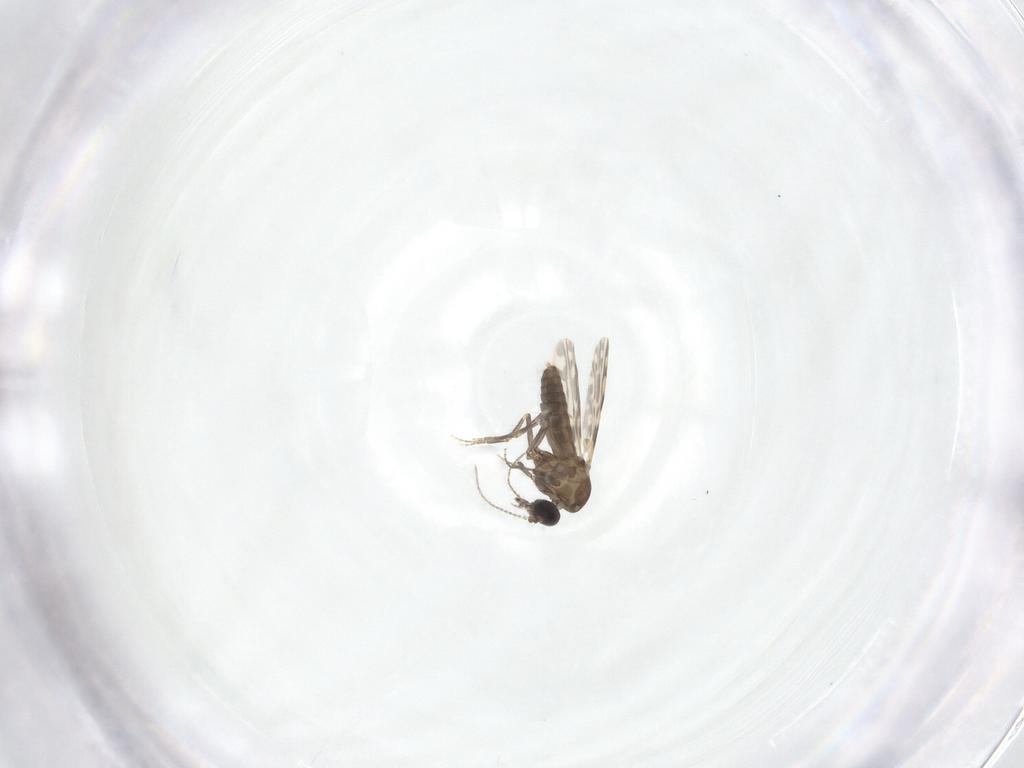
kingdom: Animalia
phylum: Arthropoda
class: Insecta
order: Diptera
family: Ceratopogonidae
